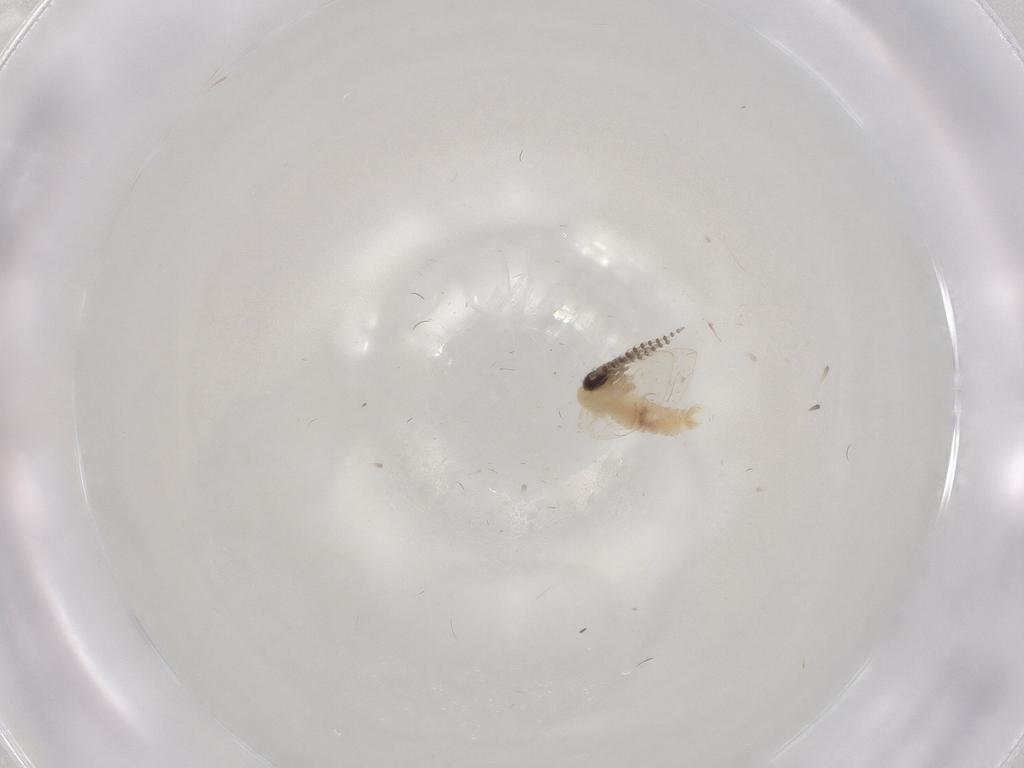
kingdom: Animalia
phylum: Arthropoda
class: Insecta
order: Diptera
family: Psychodidae
